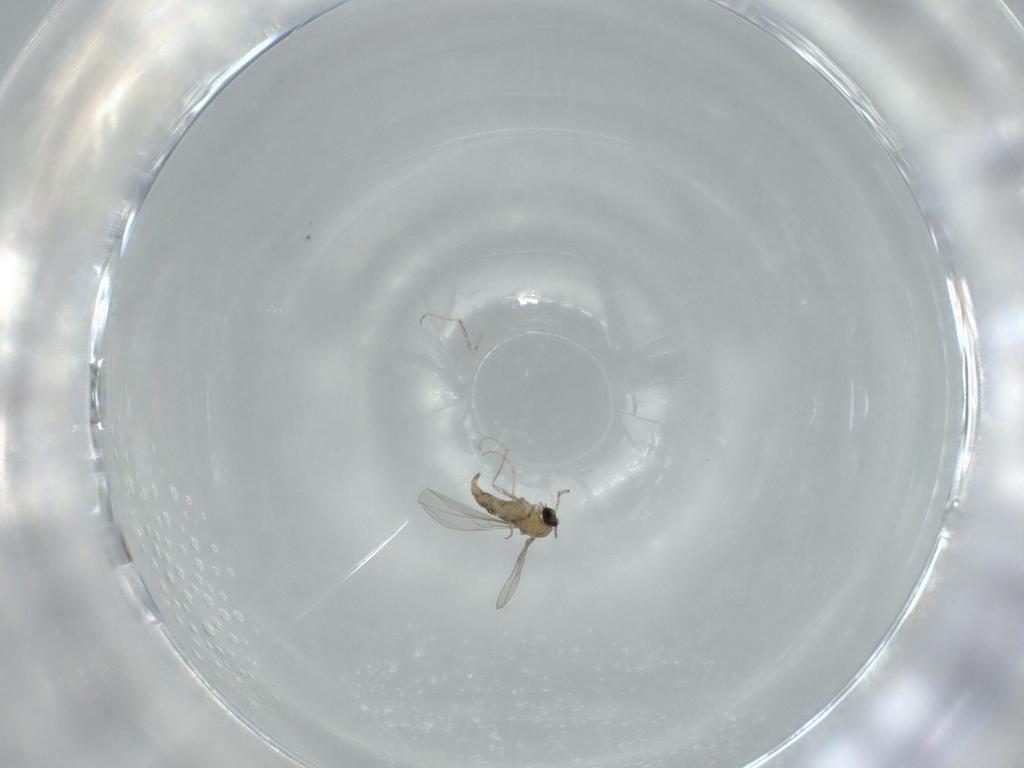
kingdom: Animalia
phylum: Arthropoda
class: Insecta
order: Diptera
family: Cecidomyiidae
